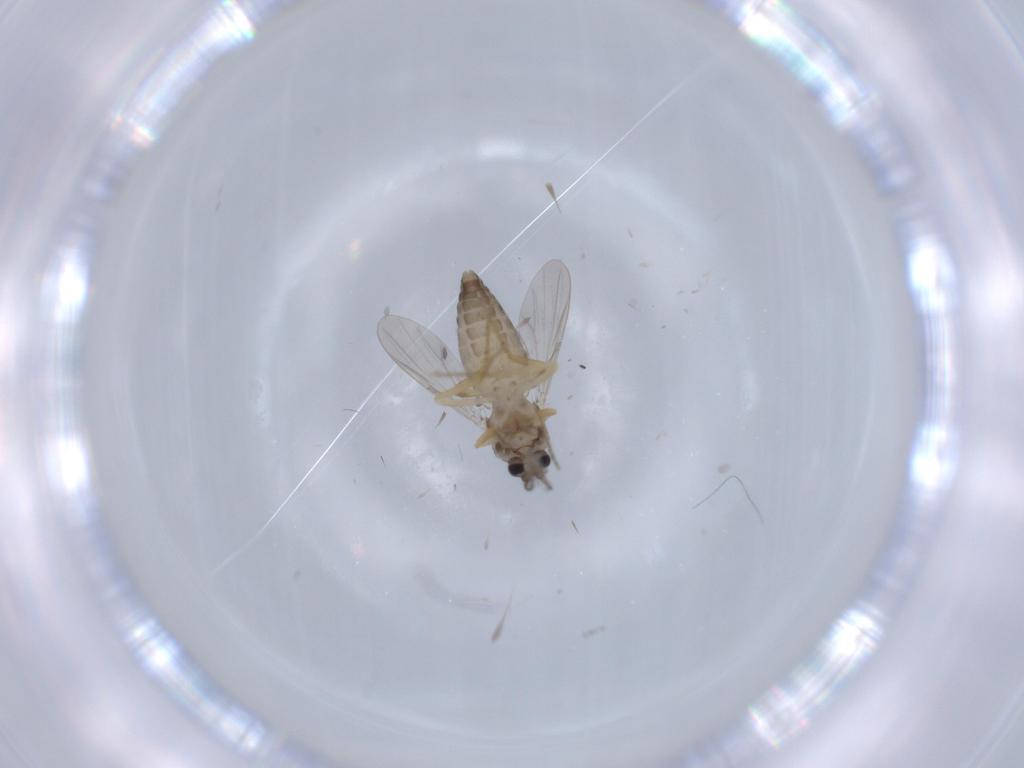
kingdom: Animalia
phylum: Arthropoda
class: Insecta
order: Diptera
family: Ceratopogonidae
